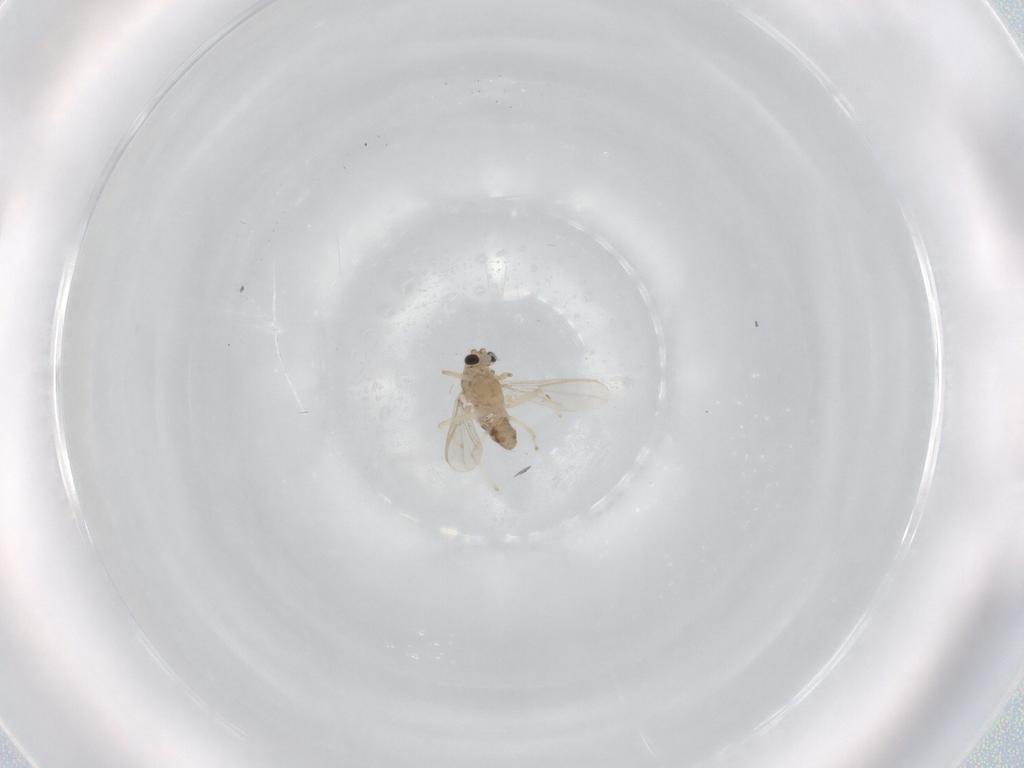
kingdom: Animalia
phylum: Arthropoda
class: Insecta
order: Diptera
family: Chironomidae
